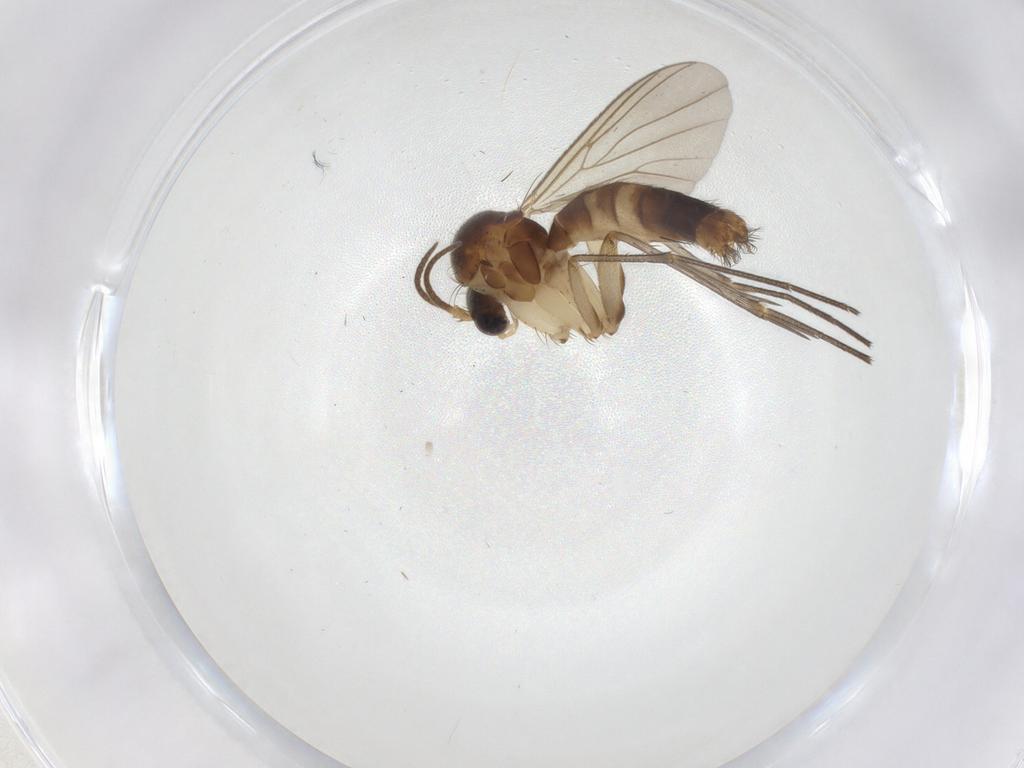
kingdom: Animalia
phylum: Arthropoda
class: Insecta
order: Diptera
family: Mycetophilidae
